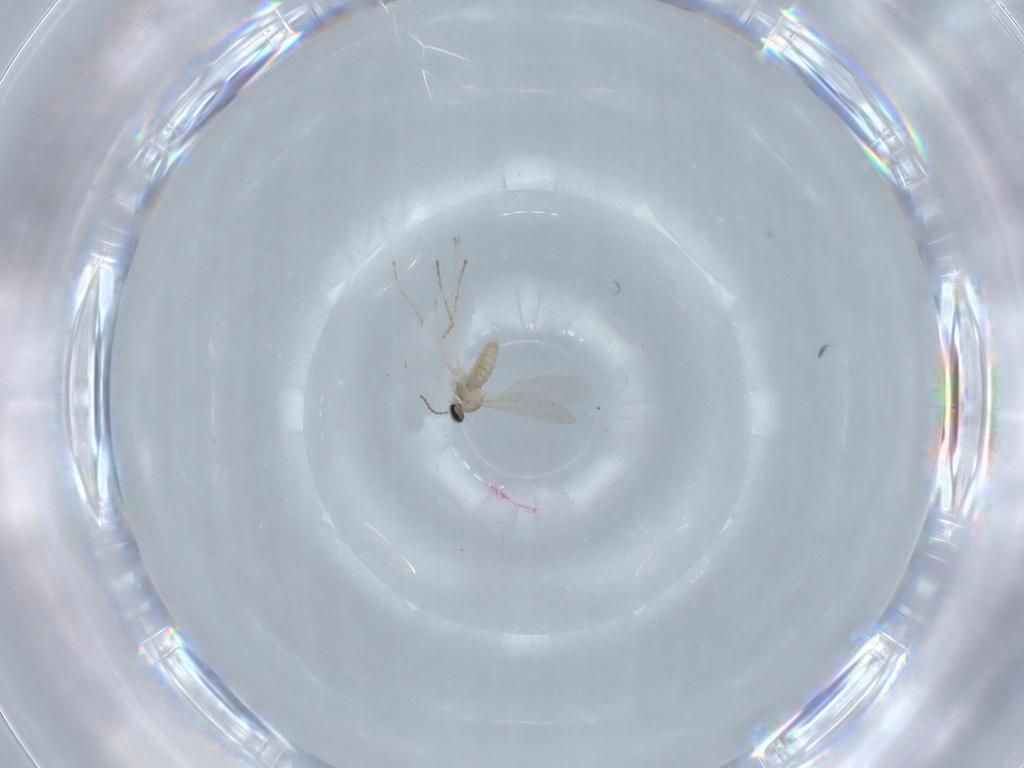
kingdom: Animalia
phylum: Arthropoda
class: Insecta
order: Diptera
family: Cecidomyiidae
